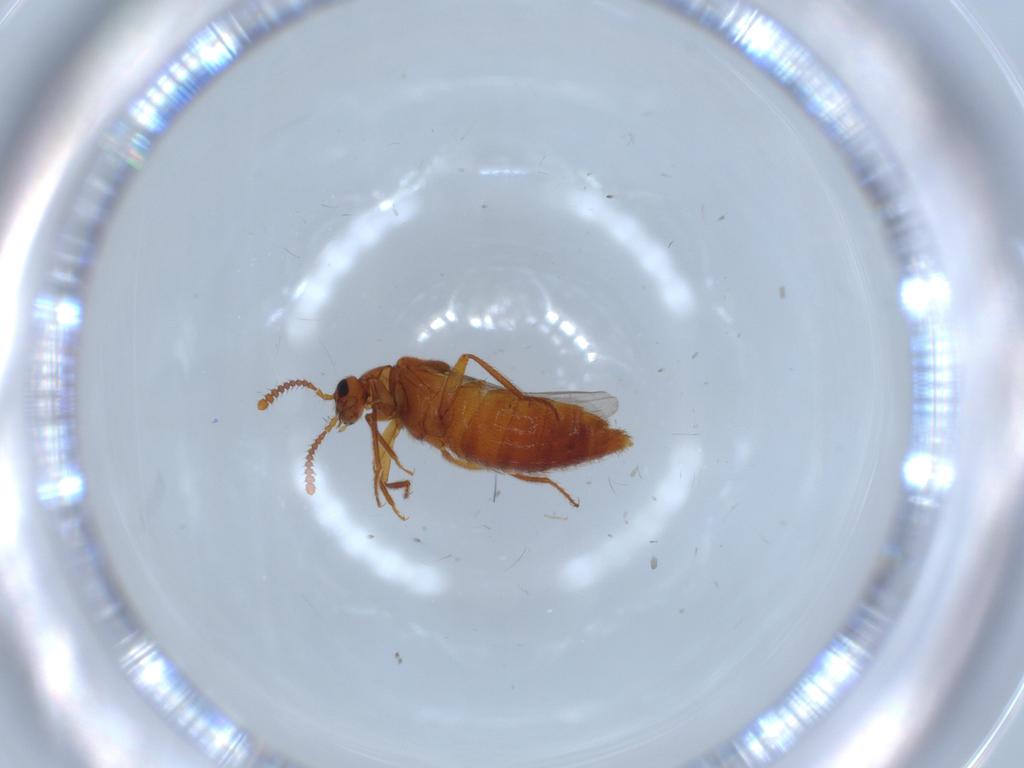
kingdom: Animalia
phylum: Arthropoda
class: Insecta
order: Coleoptera
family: Staphylinidae
